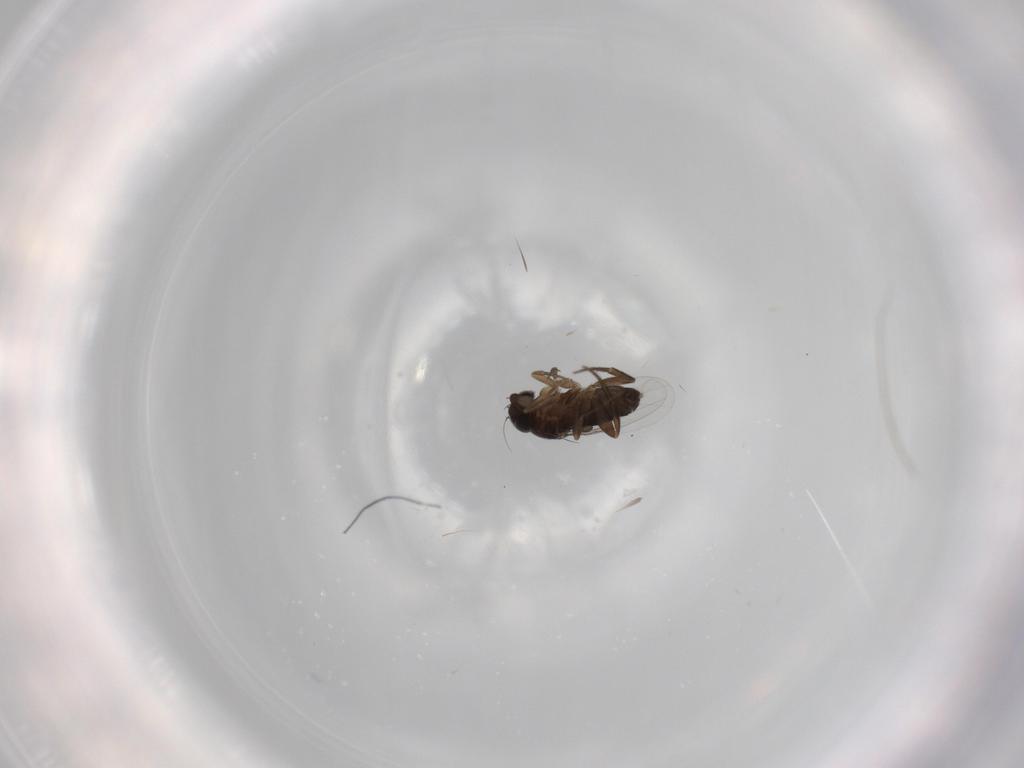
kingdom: Animalia
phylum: Arthropoda
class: Insecta
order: Diptera
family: Phoridae
